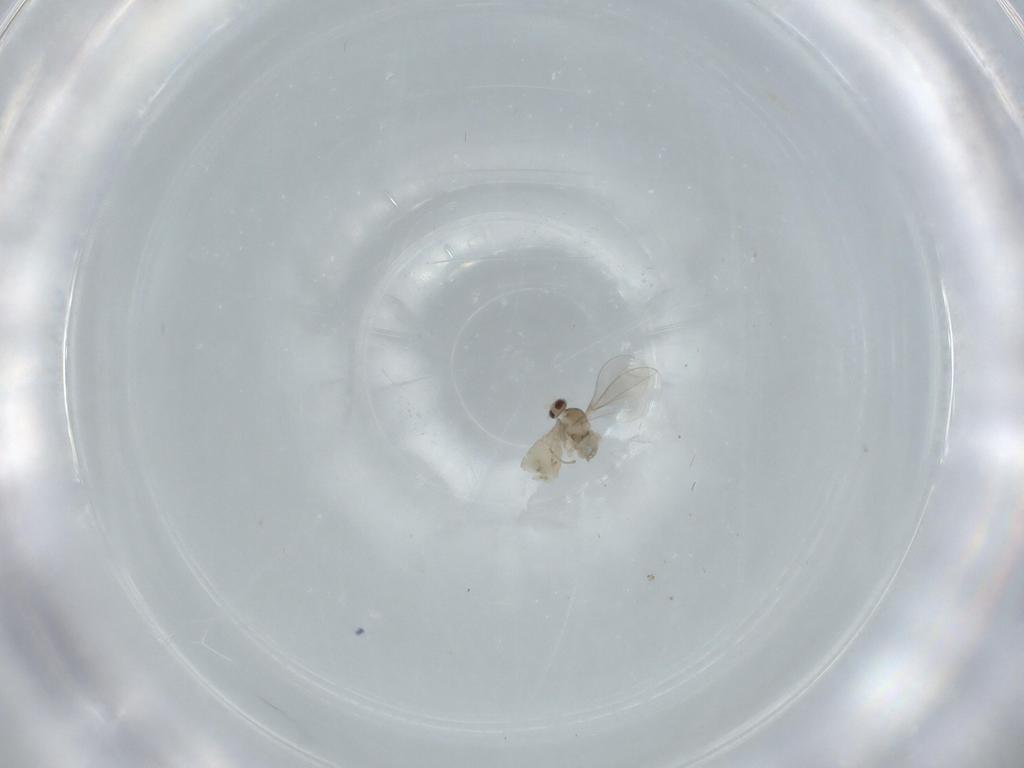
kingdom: Animalia
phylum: Arthropoda
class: Insecta
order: Diptera
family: Cecidomyiidae
